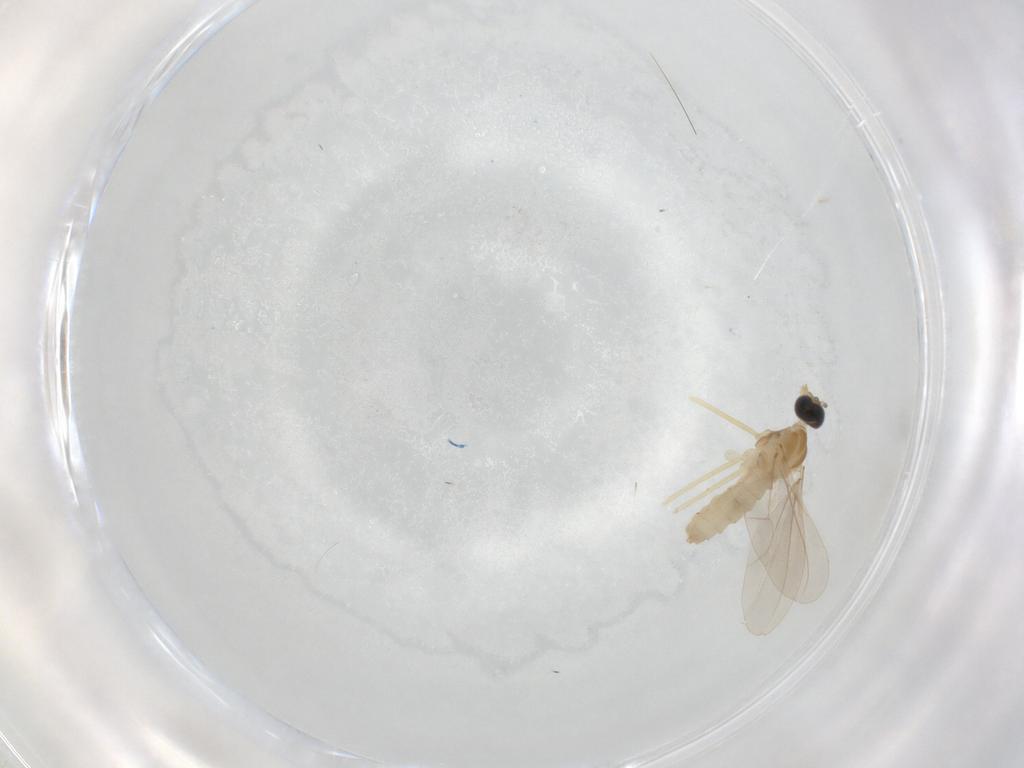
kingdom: Animalia
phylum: Arthropoda
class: Insecta
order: Diptera
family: Cecidomyiidae
